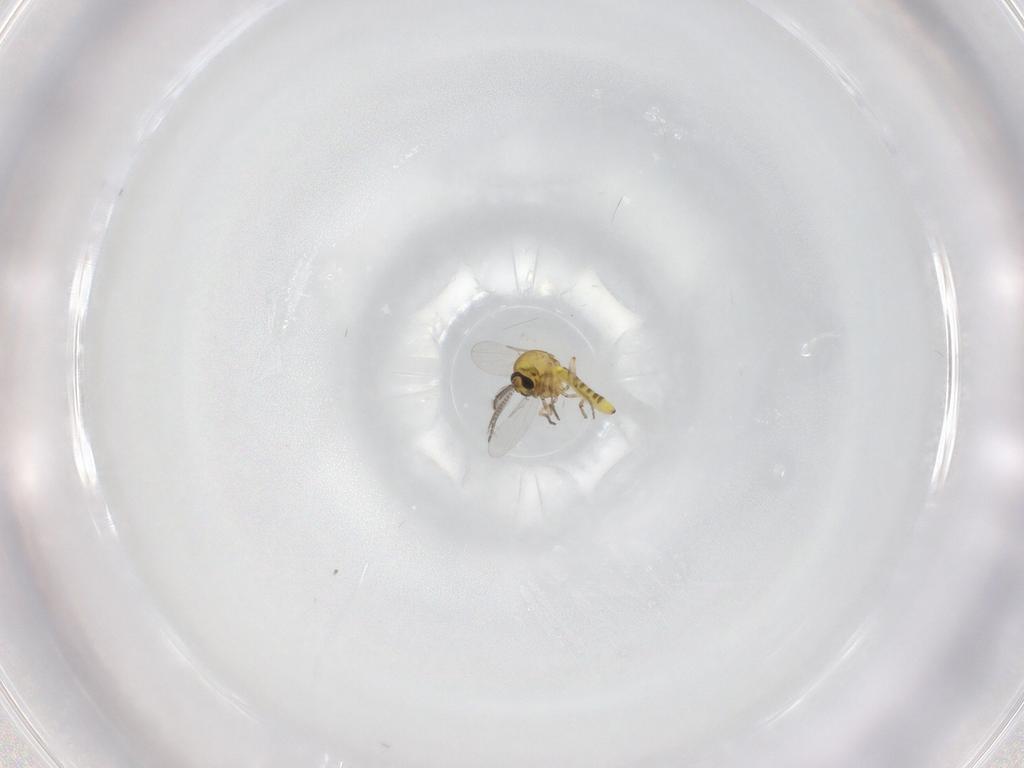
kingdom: Animalia
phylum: Arthropoda
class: Insecta
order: Diptera
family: Ceratopogonidae
